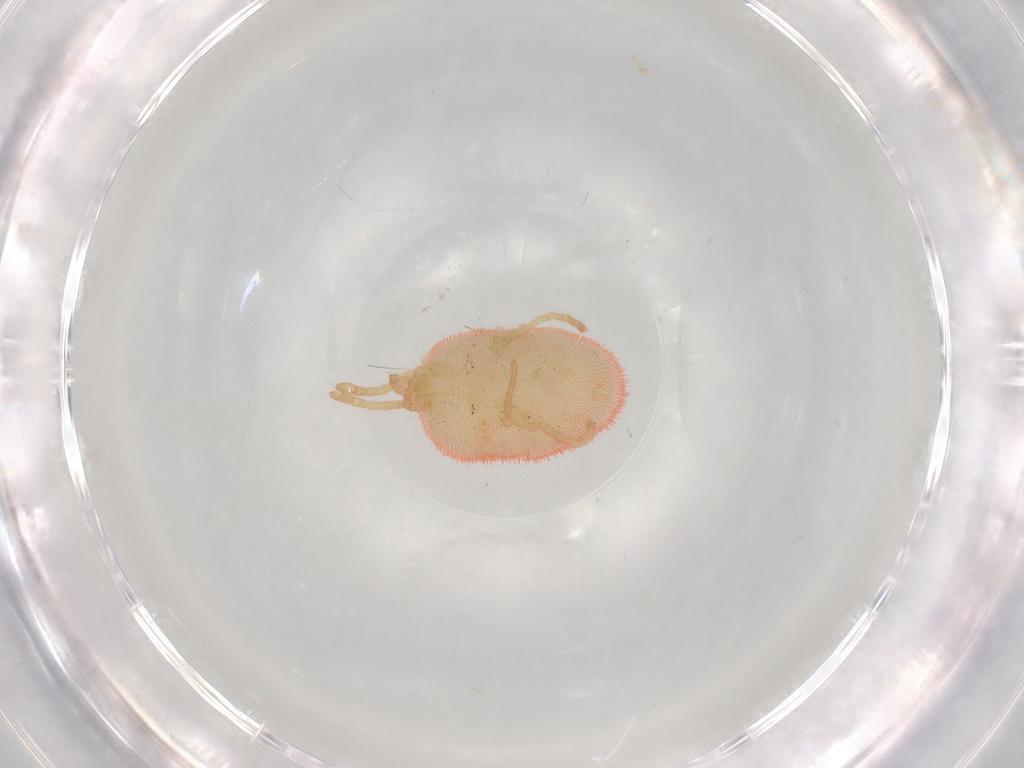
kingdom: Animalia
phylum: Arthropoda
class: Arachnida
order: Trombidiformes
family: Trombidiidae
